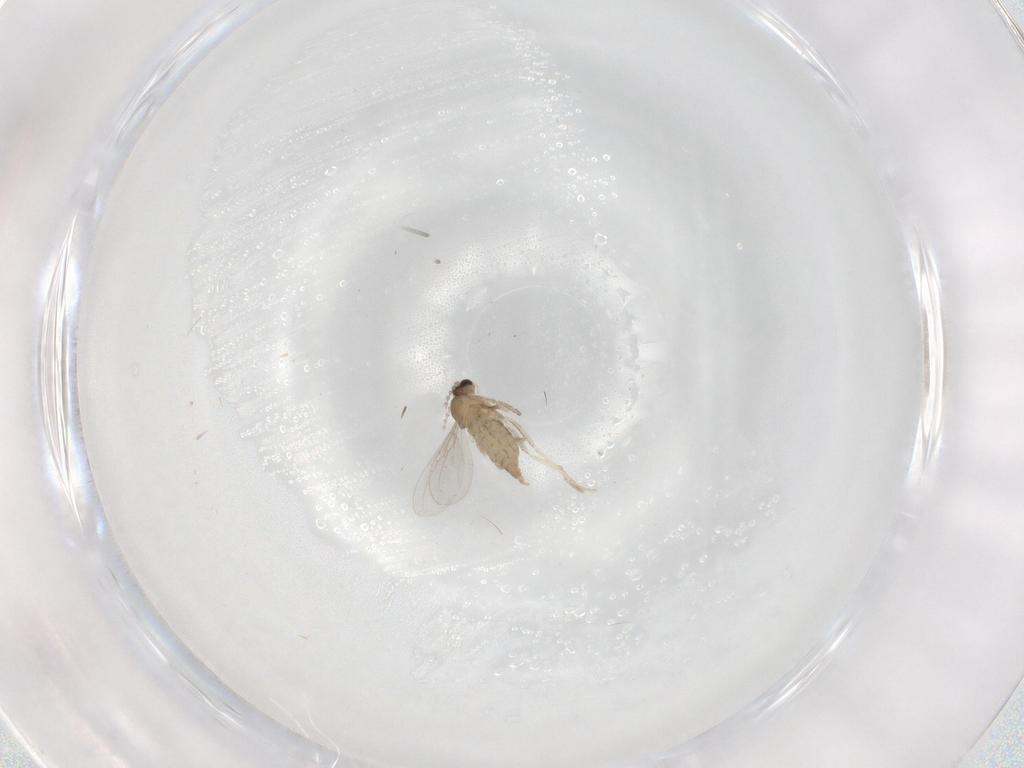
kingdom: Animalia
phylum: Arthropoda
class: Insecta
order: Diptera
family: Cecidomyiidae
